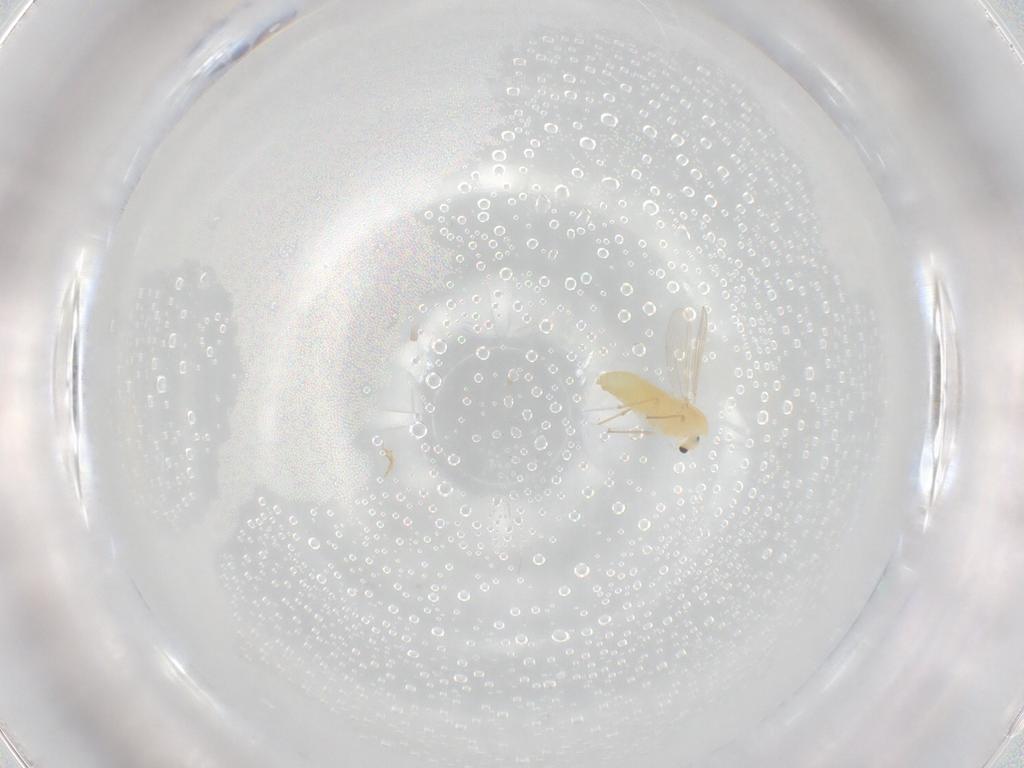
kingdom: Animalia
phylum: Arthropoda
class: Insecta
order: Diptera
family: Chironomidae
